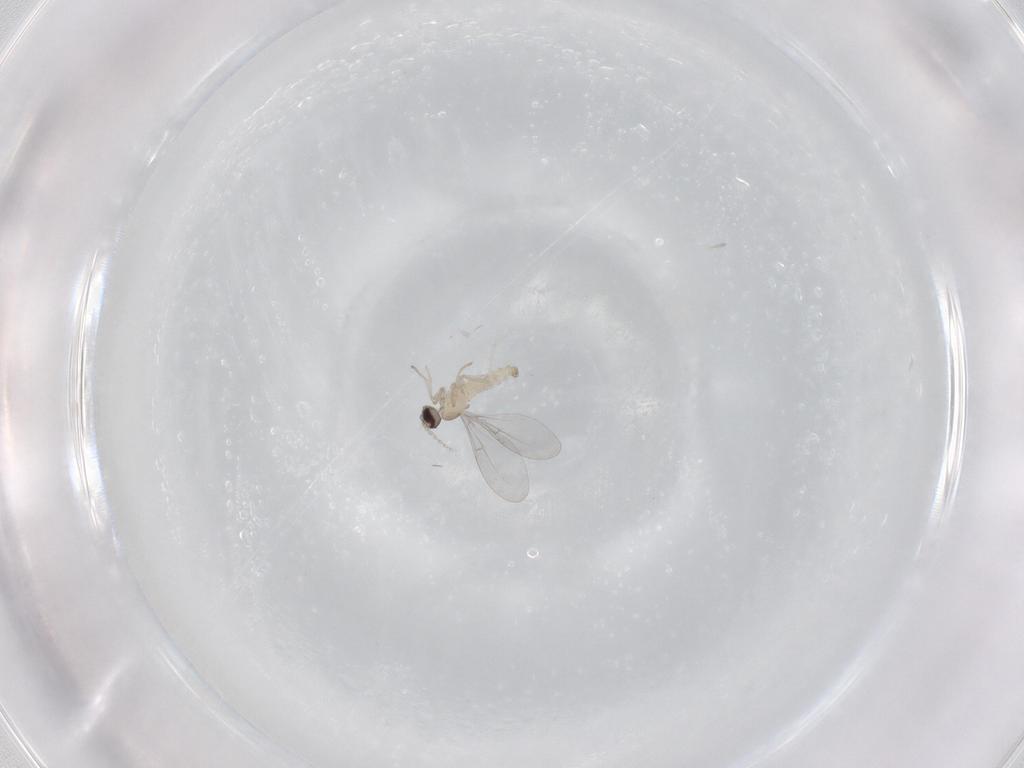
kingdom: Animalia
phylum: Arthropoda
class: Insecta
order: Diptera
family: Cecidomyiidae
